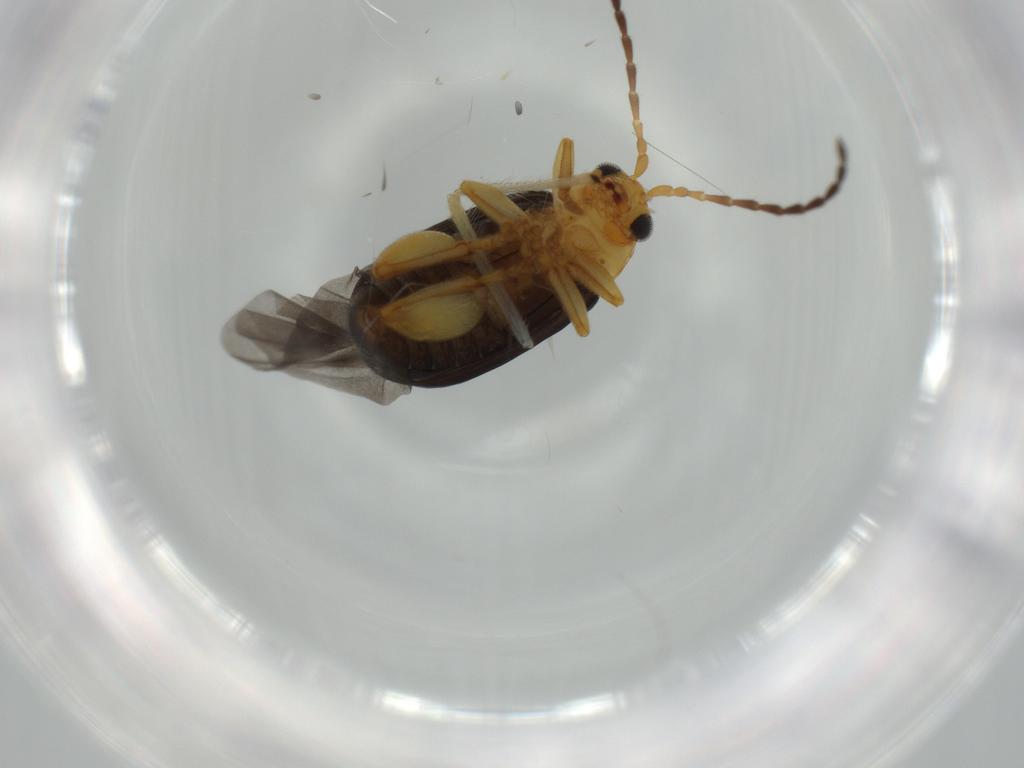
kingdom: Animalia
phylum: Arthropoda
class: Insecta
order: Coleoptera
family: Chrysomelidae
